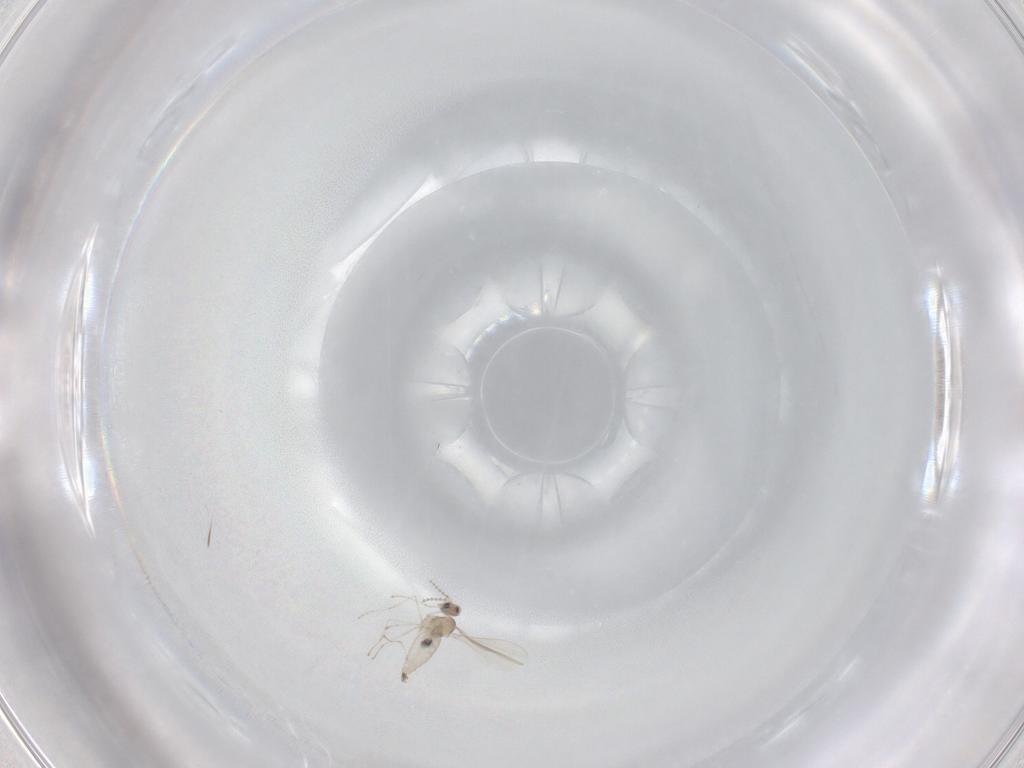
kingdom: Animalia
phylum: Arthropoda
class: Insecta
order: Diptera
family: Cecidomyiidae
